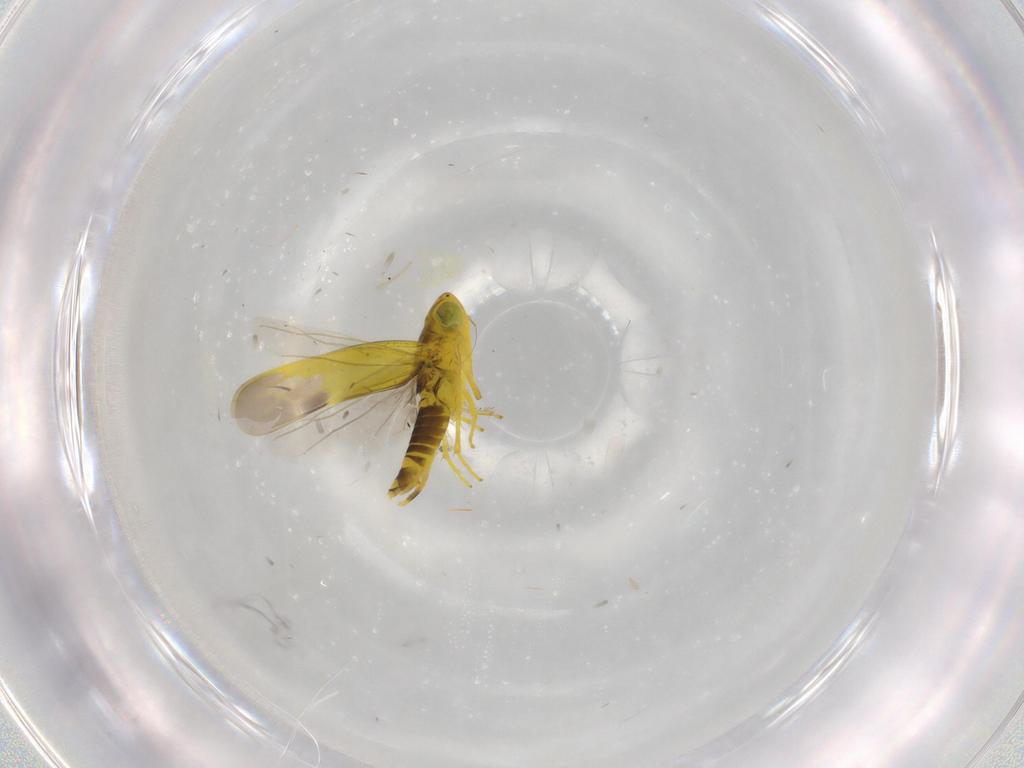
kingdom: Animalia
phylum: Arthropoda
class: Insecta
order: Hemiptera
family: Cicadellidae
